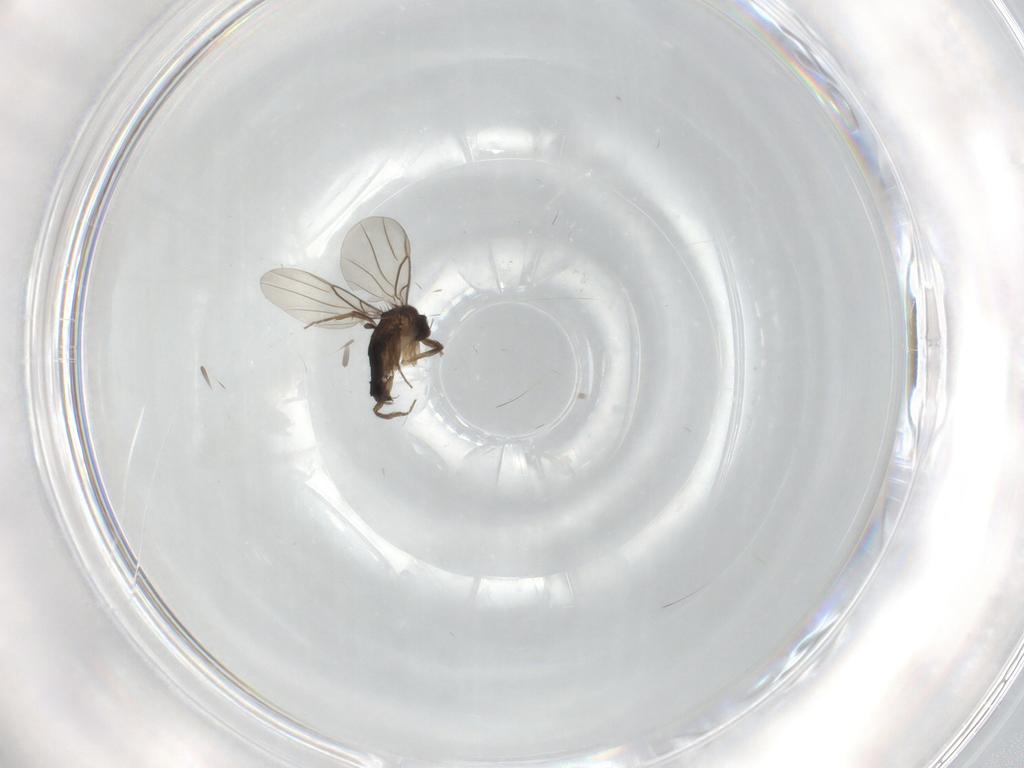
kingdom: Animalia
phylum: Arthropoda
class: Insecta
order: Diptera
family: Phoridae
